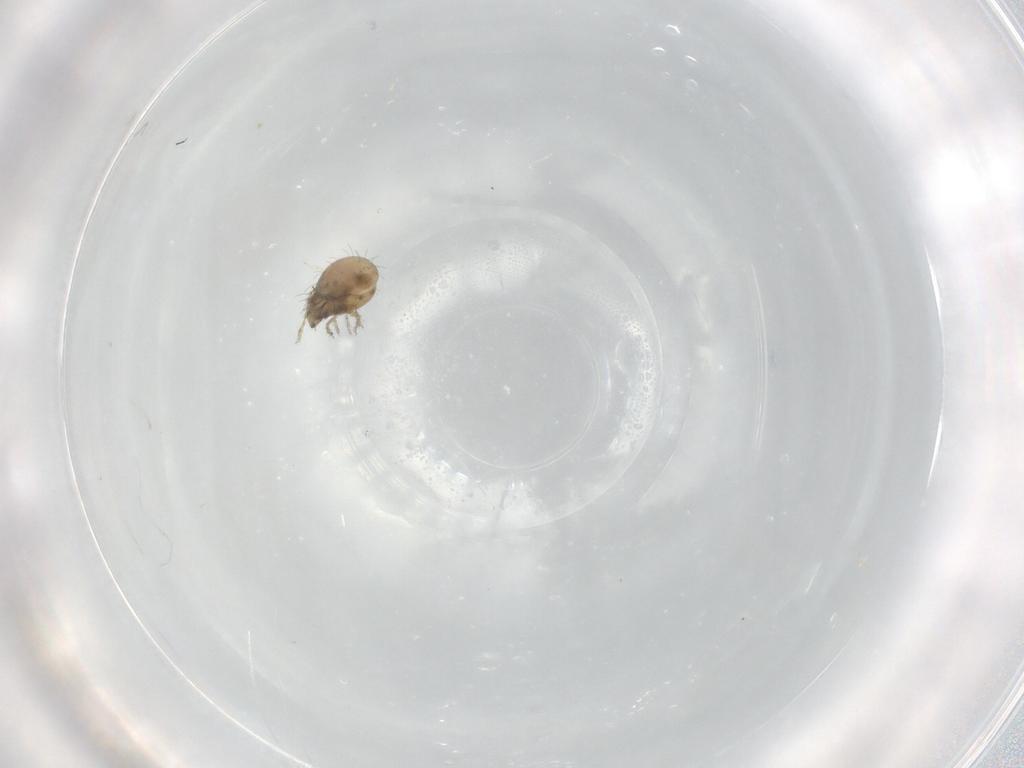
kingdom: Animalia
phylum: Arthropoda
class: Arachnida
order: Sarcoptiformes
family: Humerobatidae
